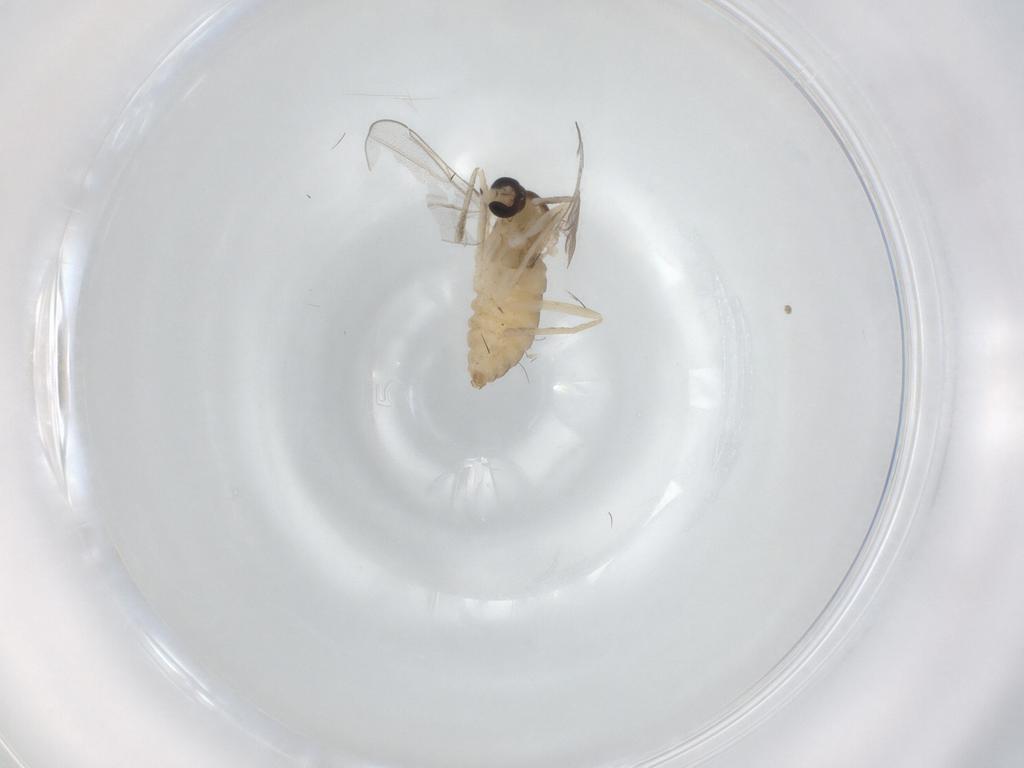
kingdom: Animalia
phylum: Arthropoda
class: Insecta
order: Diptera
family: Cecidomyiidae
